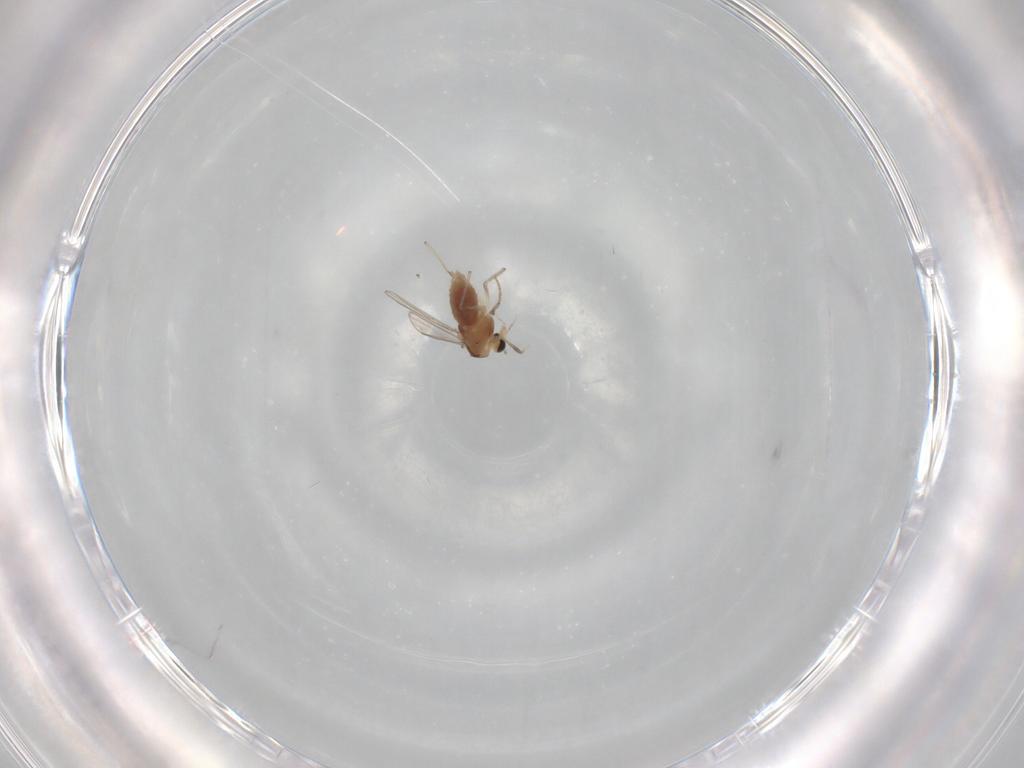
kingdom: Animalia
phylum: Arthropoda
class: Insecta
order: Diptera
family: Chironomidae
